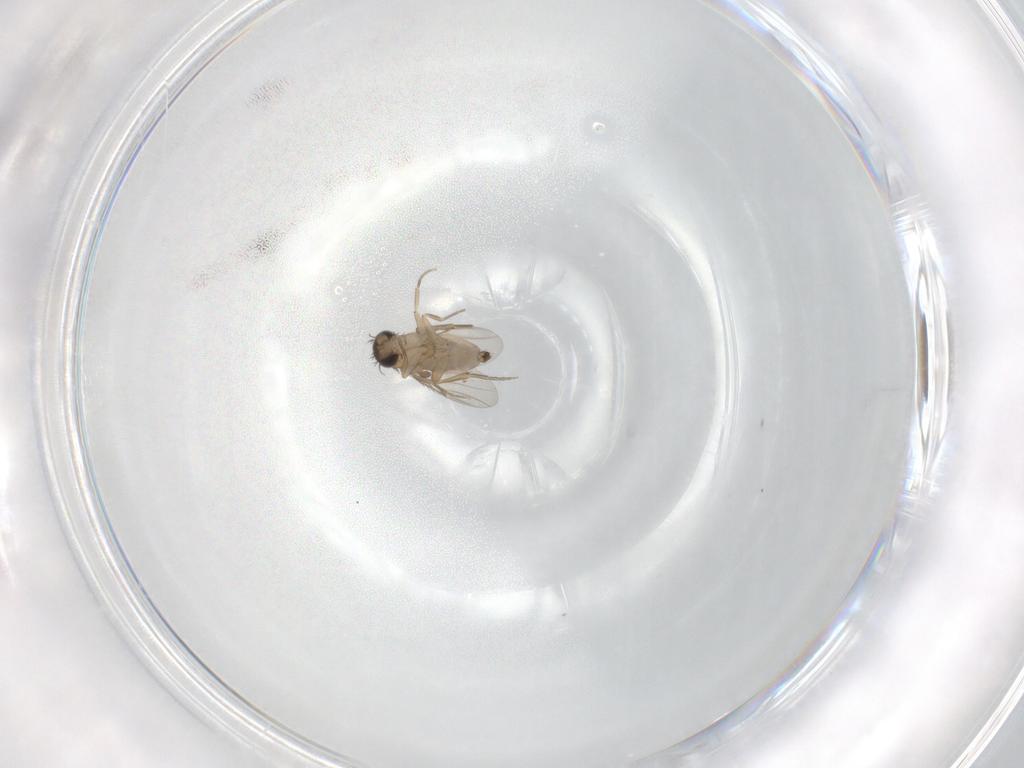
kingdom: Animalia
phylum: Arthropoda
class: Insecta
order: Diptera
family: Phoridae
